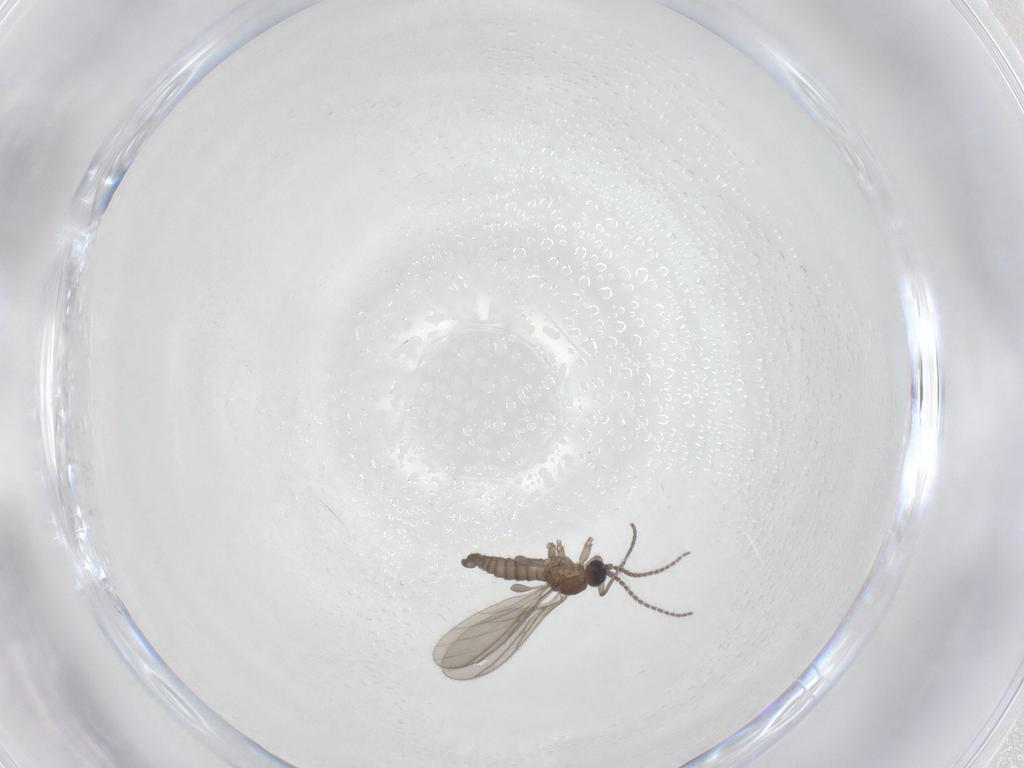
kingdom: Animalia
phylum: Arthropoda
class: Insecta
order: Diptera
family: Sciaridae
